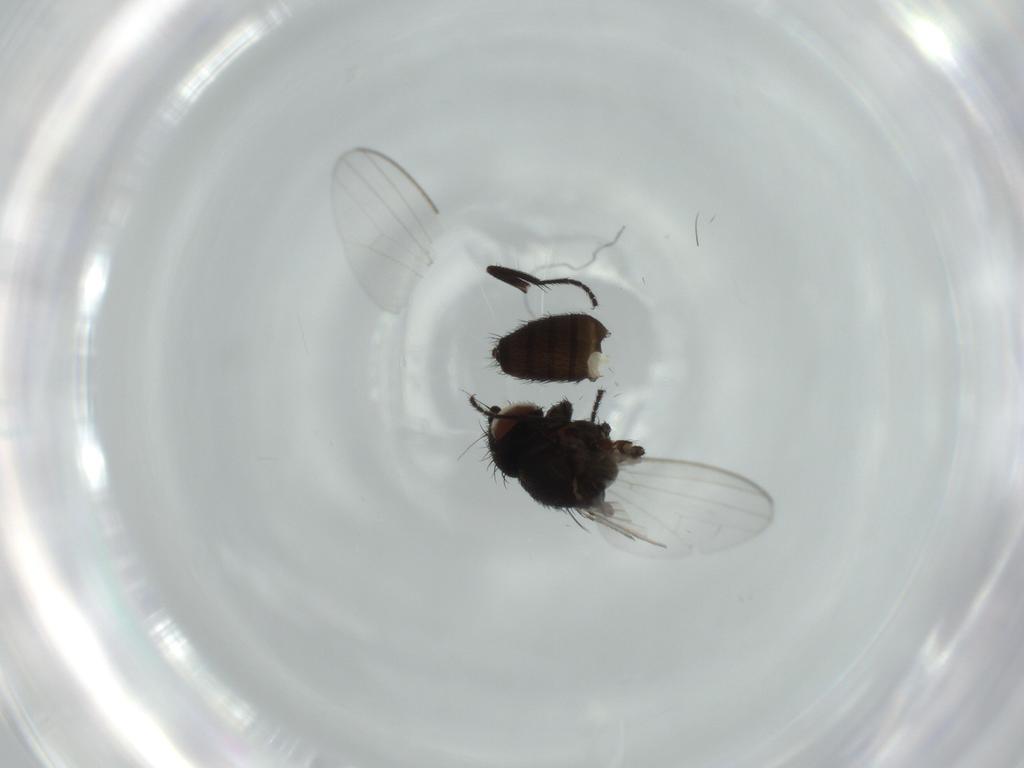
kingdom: Animalia
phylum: Arthropoda
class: Insecta
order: Diptera
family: Milichiidae
